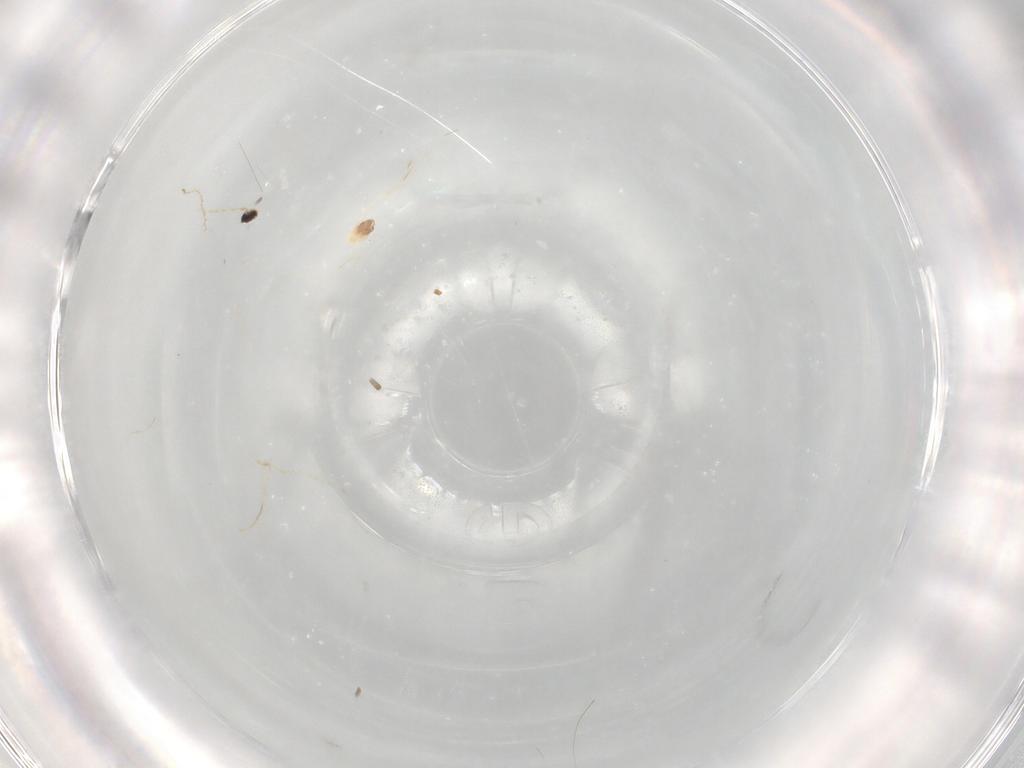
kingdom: Animalia
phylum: Arthropoda
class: Insecta
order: Diptera
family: Cecidomyiidae
